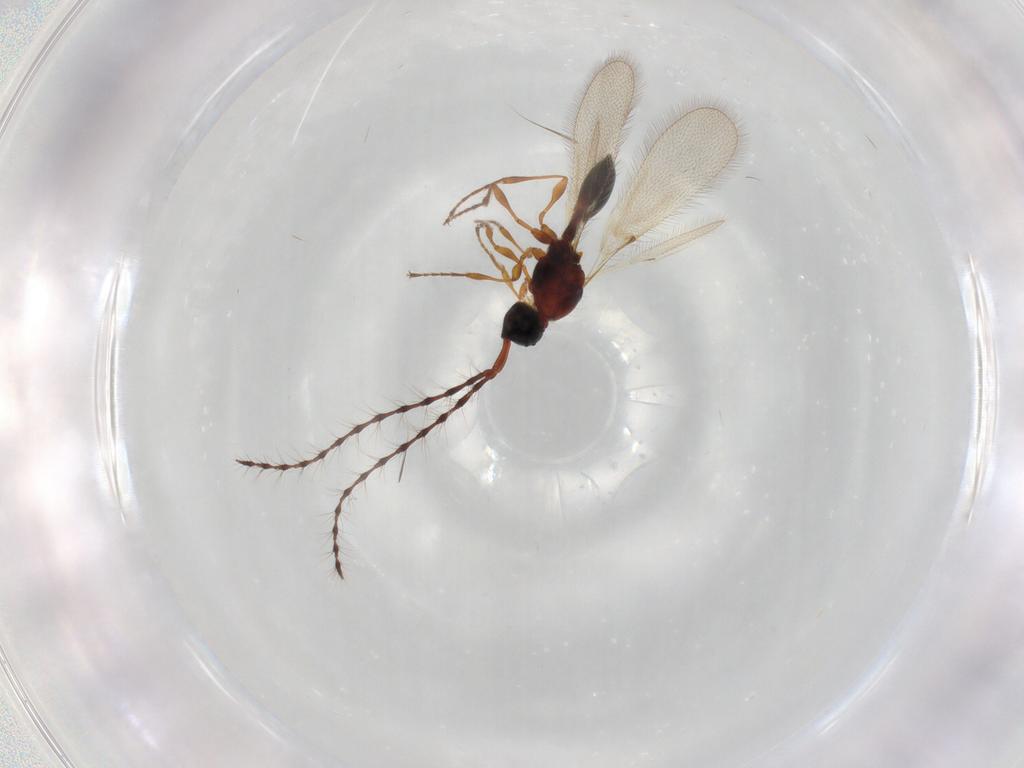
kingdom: Animalia
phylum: Arthropoda
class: Insecta
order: Hymenoptera
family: Diapriidae
